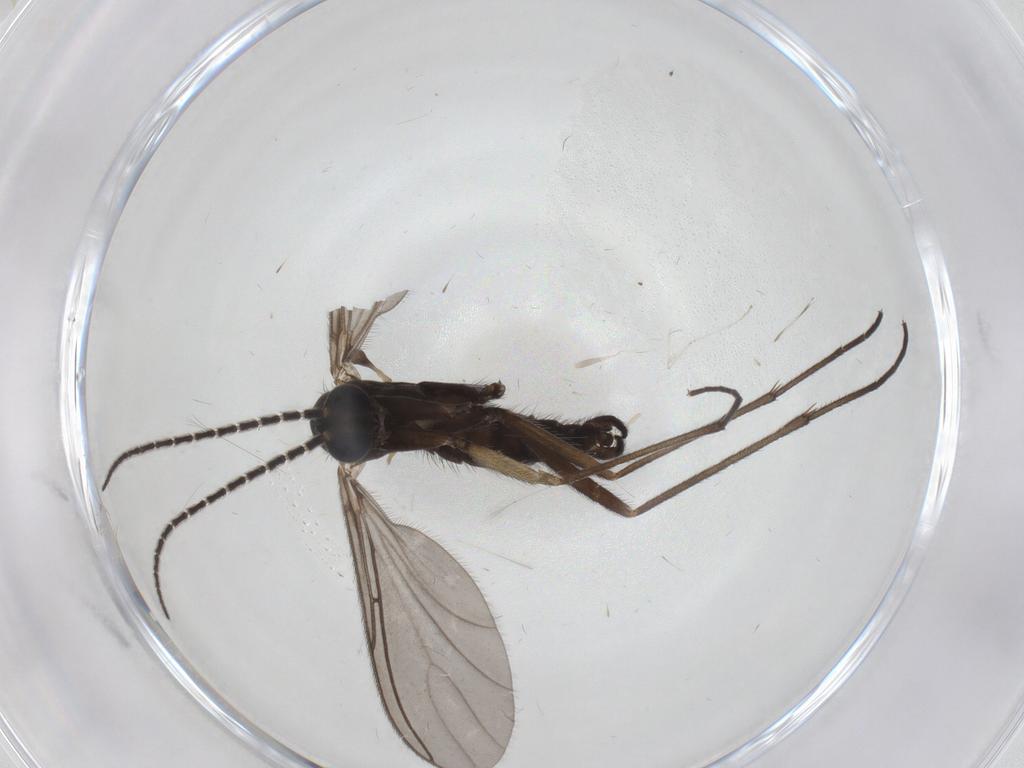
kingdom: Animalia
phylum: Arthropoda
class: Insecta
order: Diptera
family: Sciaridae
